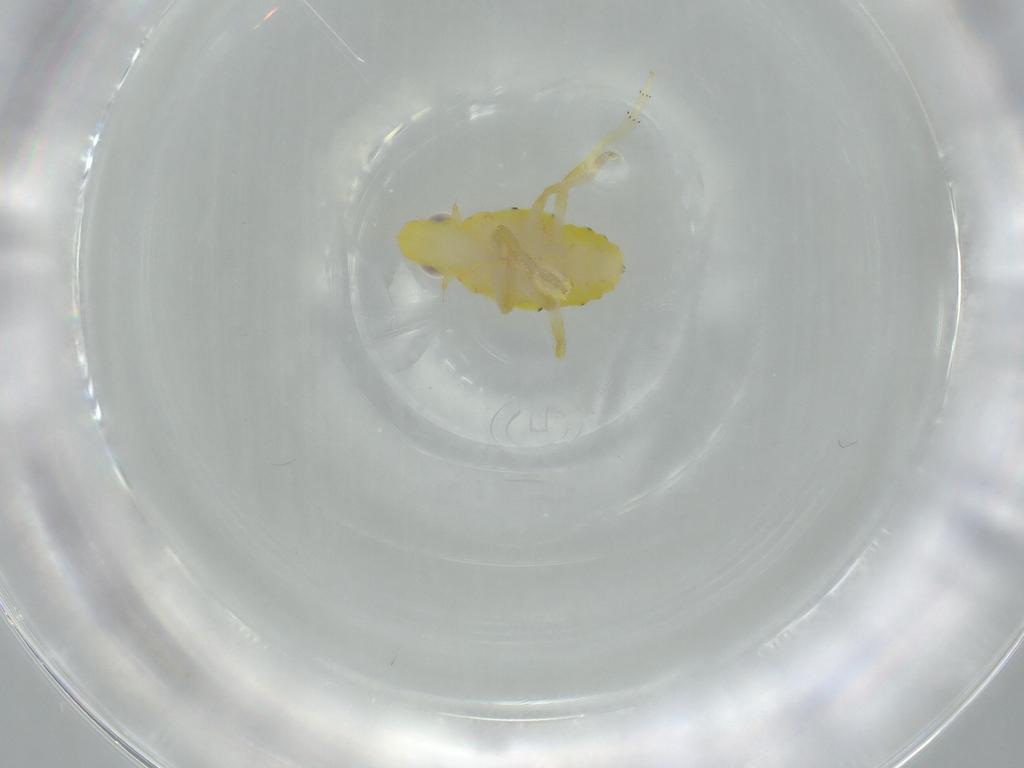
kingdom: Animalia
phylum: Arthropoda
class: Insecta
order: Hemiptera
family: Tropiduchidae
